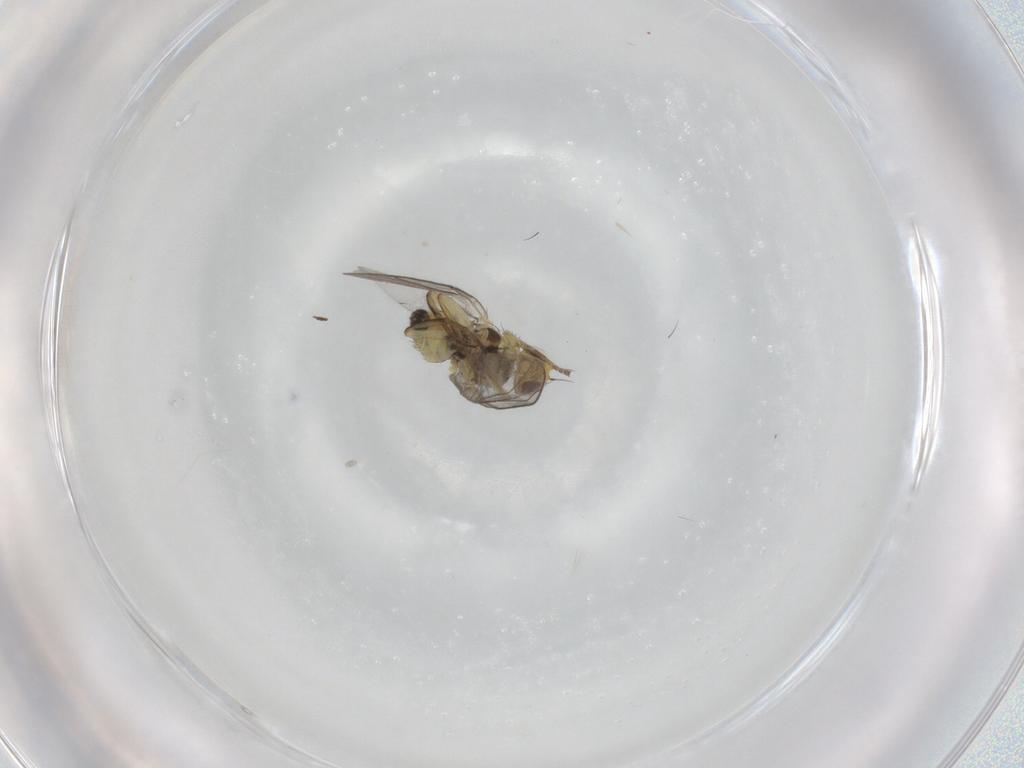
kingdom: Animalia
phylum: Arthropoda
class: Insecta
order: Diptera
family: Agromyzidae
